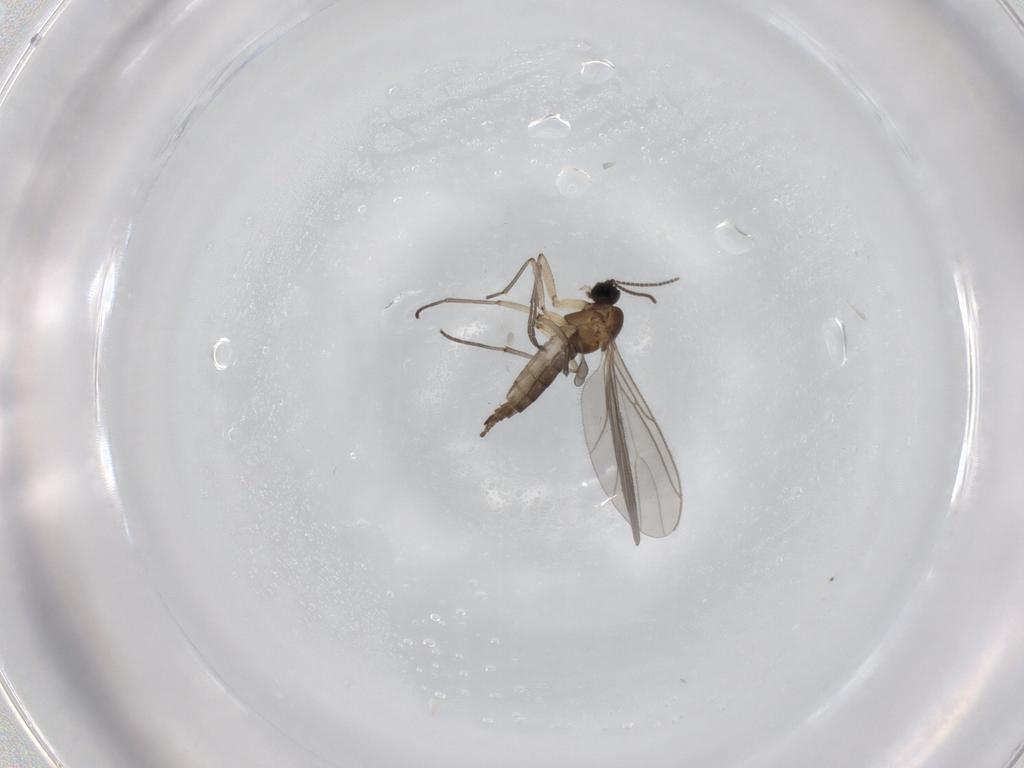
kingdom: Animalia
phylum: Arthropoda
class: Insecta
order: Diptera
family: Sciaridae
